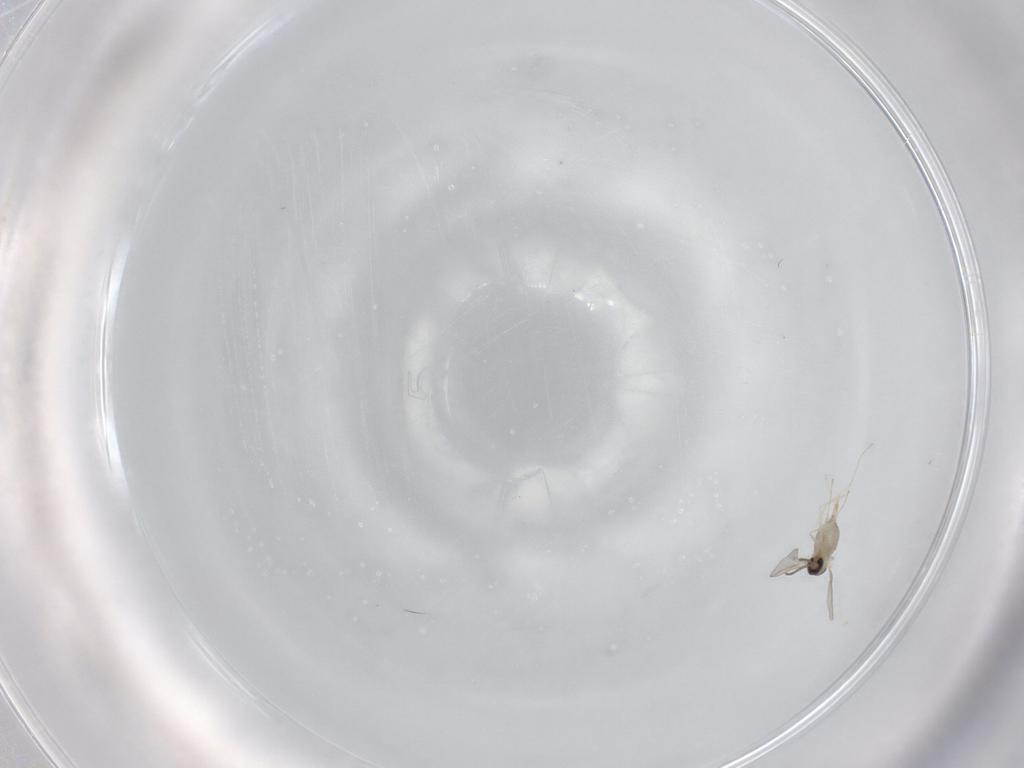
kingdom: Animalia
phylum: Arthropoda
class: Insecta
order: Diptera
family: Cecidomyiidae
